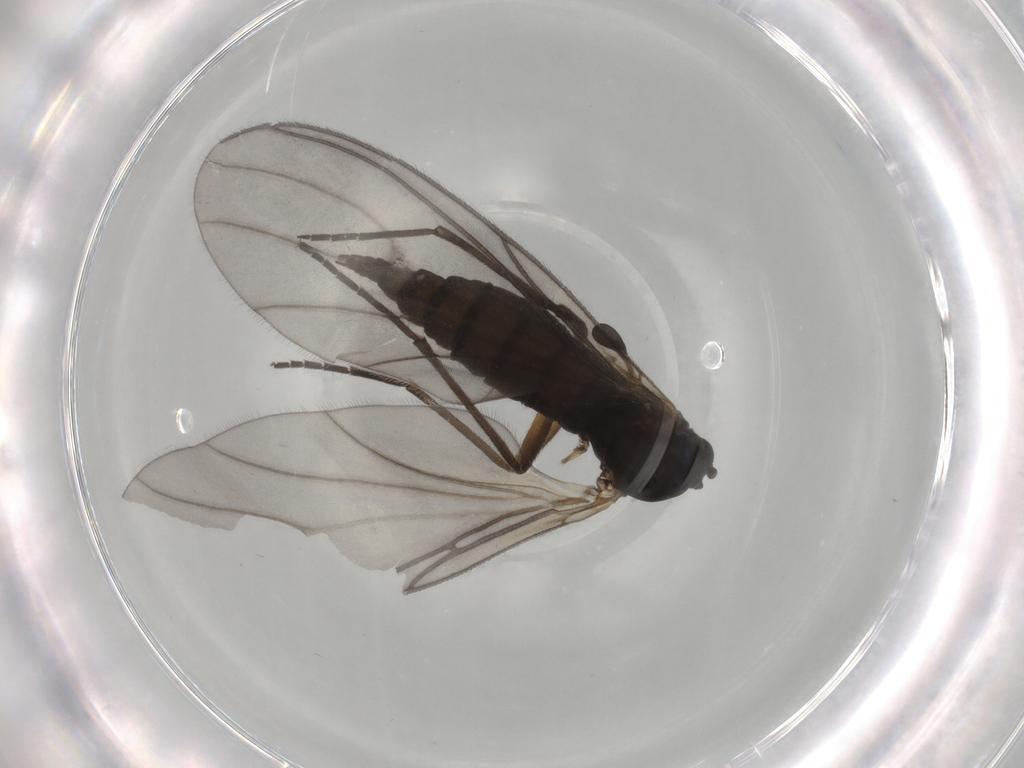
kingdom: Animalia
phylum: Arthropoda
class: Insecta
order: Diptera
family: Sciaridae
